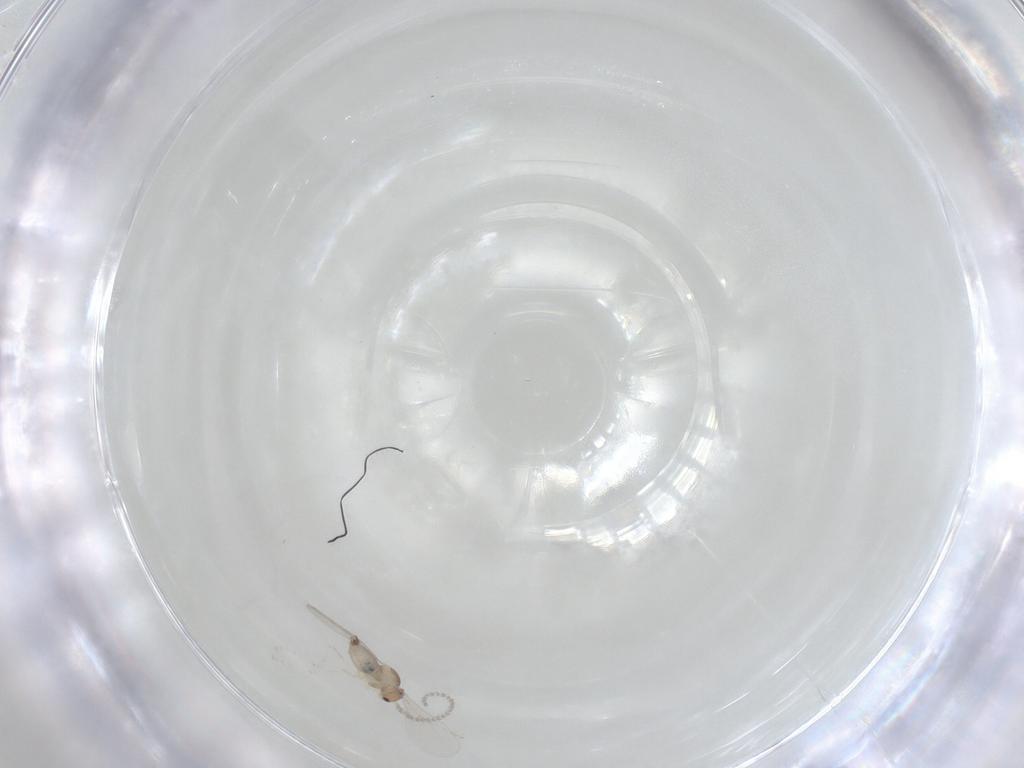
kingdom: Animalia
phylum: Arthropoda
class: Insecta
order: Diptera
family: Cecidomyiidae
